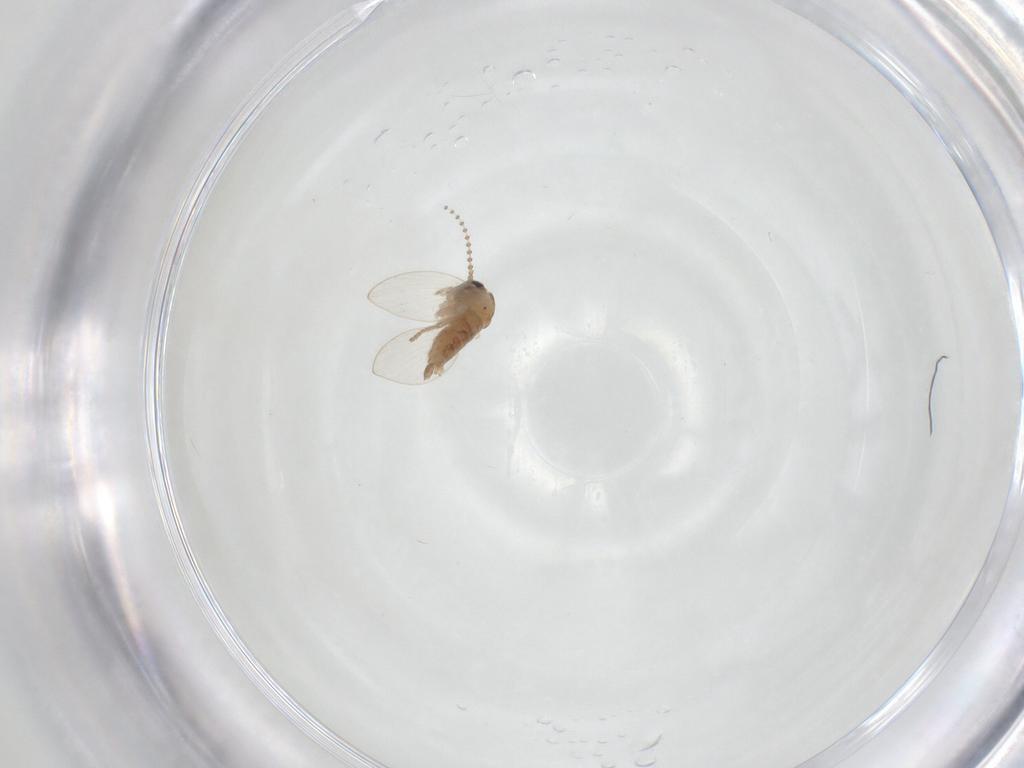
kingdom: Animalia
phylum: Arthropoda
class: Insecta
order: Diptera
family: Psychodidae
